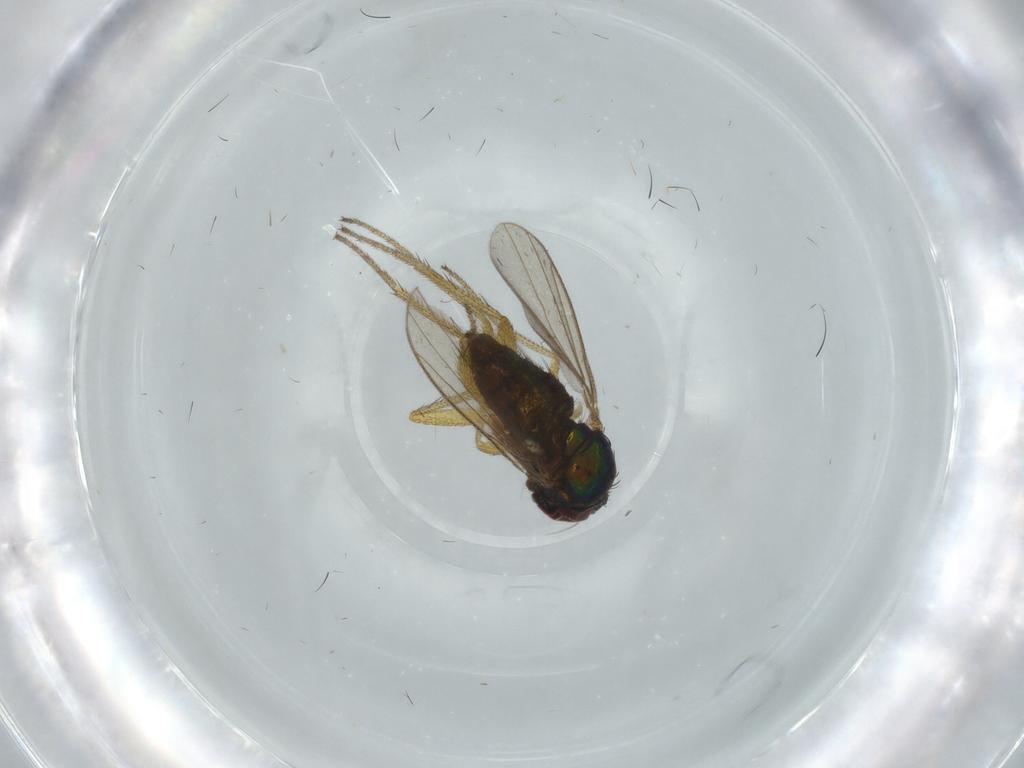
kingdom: Animalia
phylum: Arthropoda
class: Insecta
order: Diptera
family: Dolichopodidae
